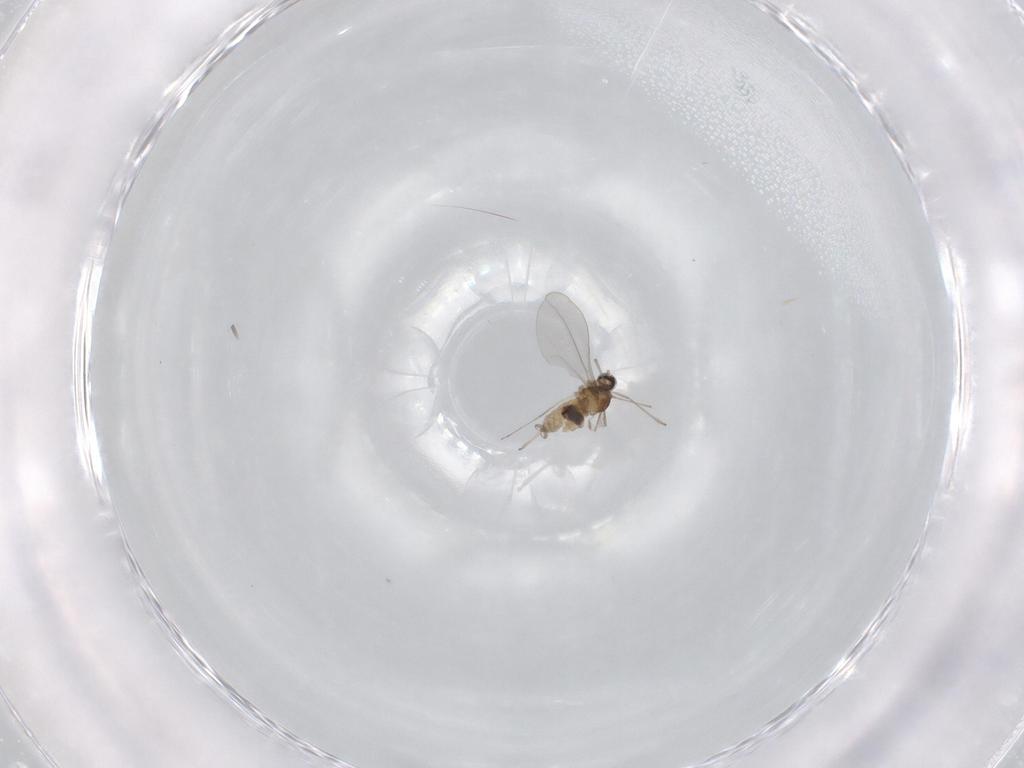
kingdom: Animalia
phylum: Arthropoda
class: Insecta
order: Diptera
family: Cecidomyiidae
